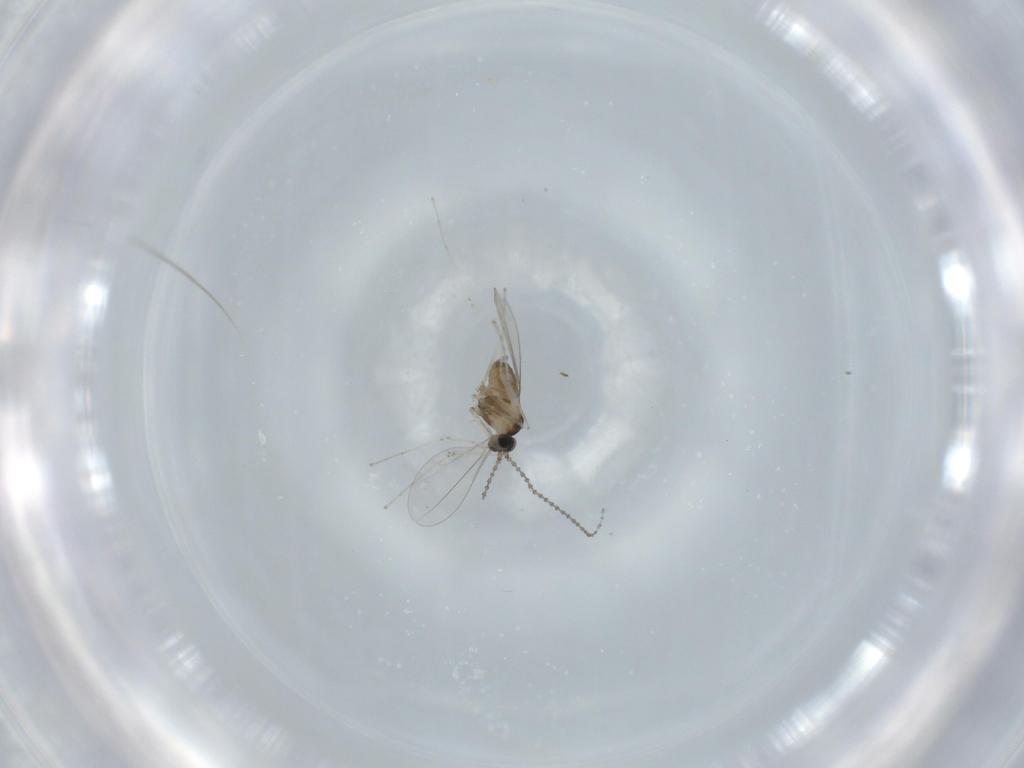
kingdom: Animalia
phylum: Arthropoda
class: Insecta
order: Diptera
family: Cecidomyiidae
